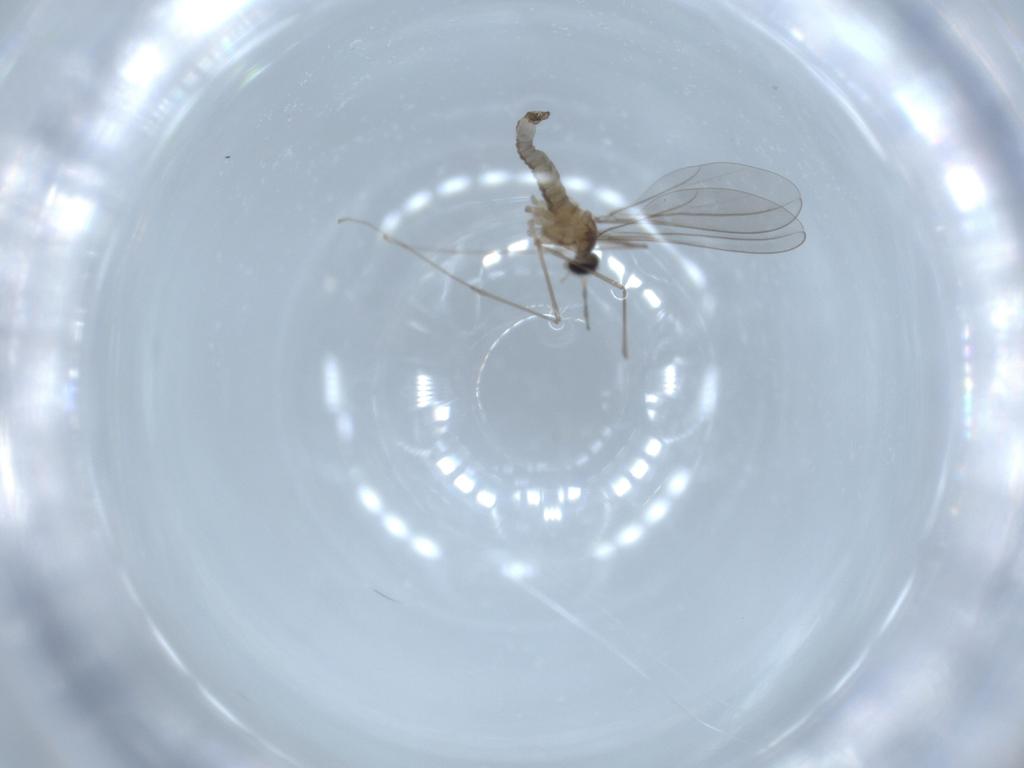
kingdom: Animalia
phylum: Arthropoda
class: Insecta
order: Diptera
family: Cecidomyiidae
